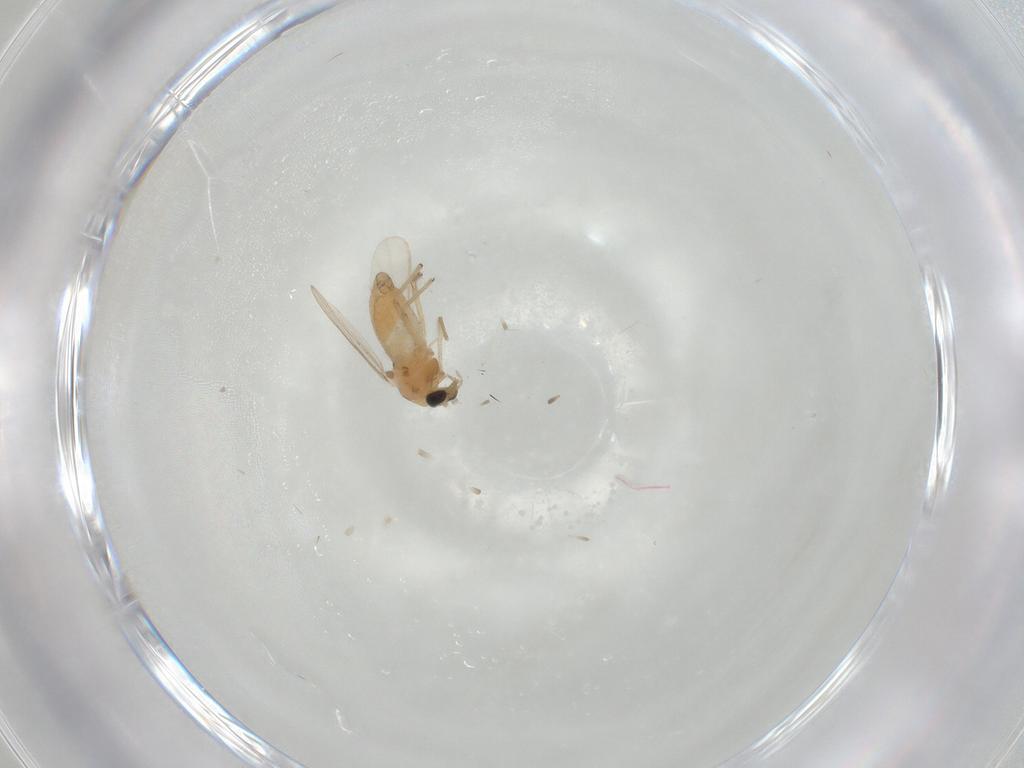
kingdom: Animalia
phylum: Arthropoda
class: Insecta
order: Diptera
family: Chironomidae
